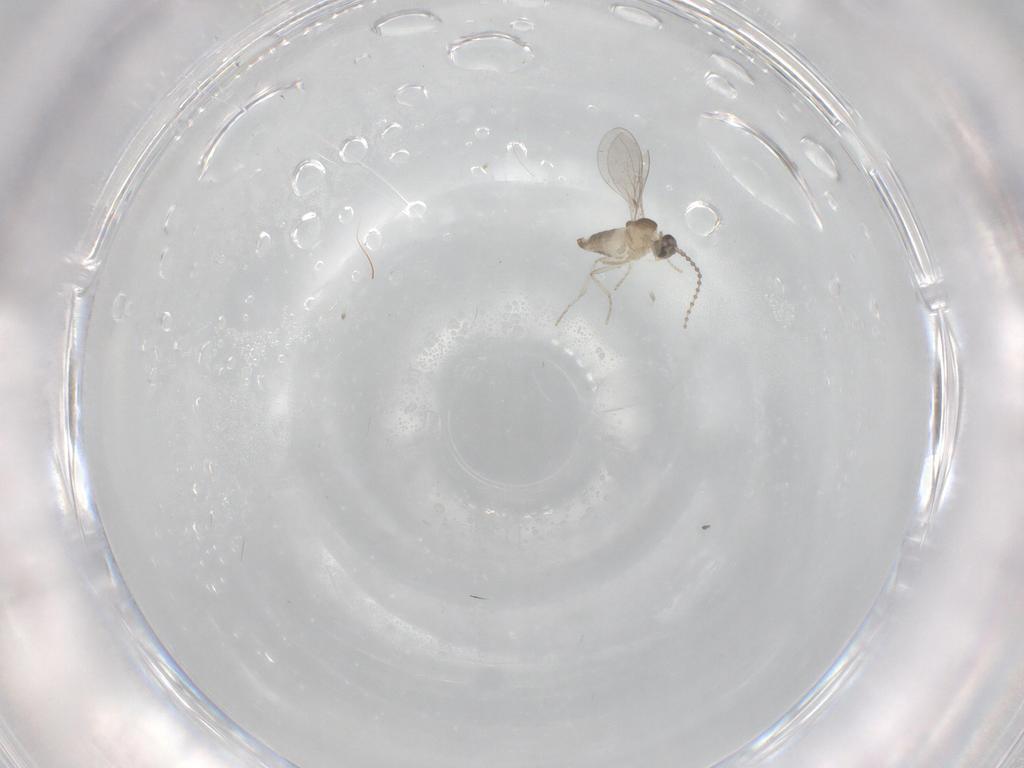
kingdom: Animalia
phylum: Arthropoda
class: Insecta
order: Diptera
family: Cecidomyiidae
